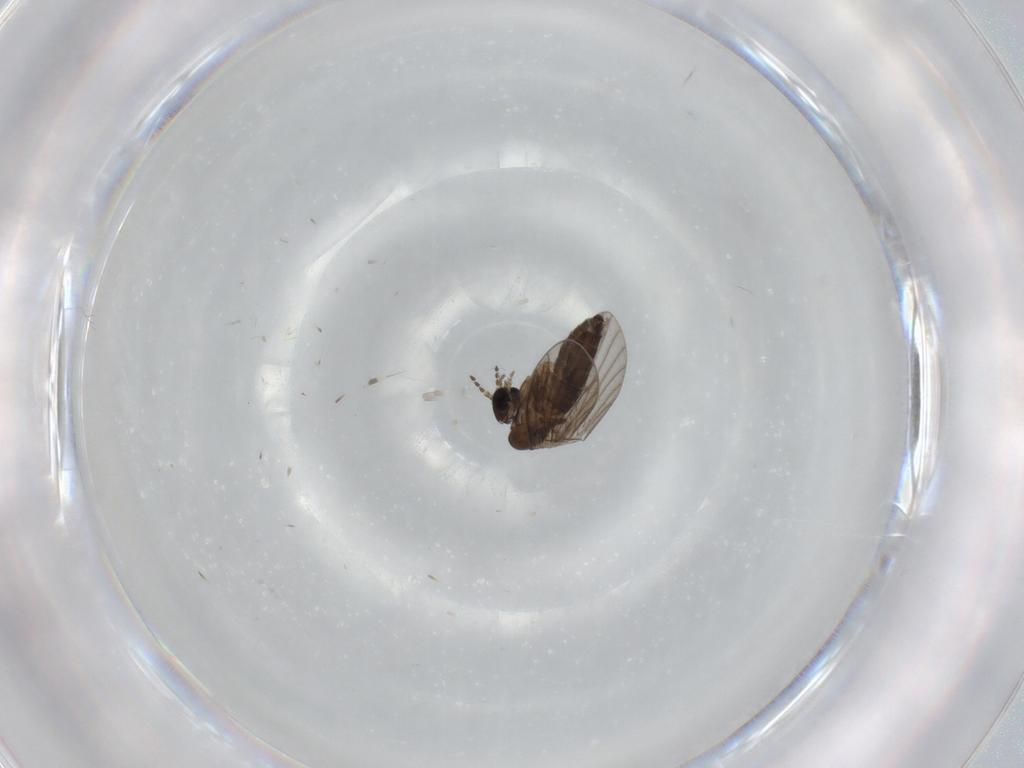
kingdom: Animalia
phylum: Arthropoda
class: Insecta
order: Diptera
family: Dolichopodidae
